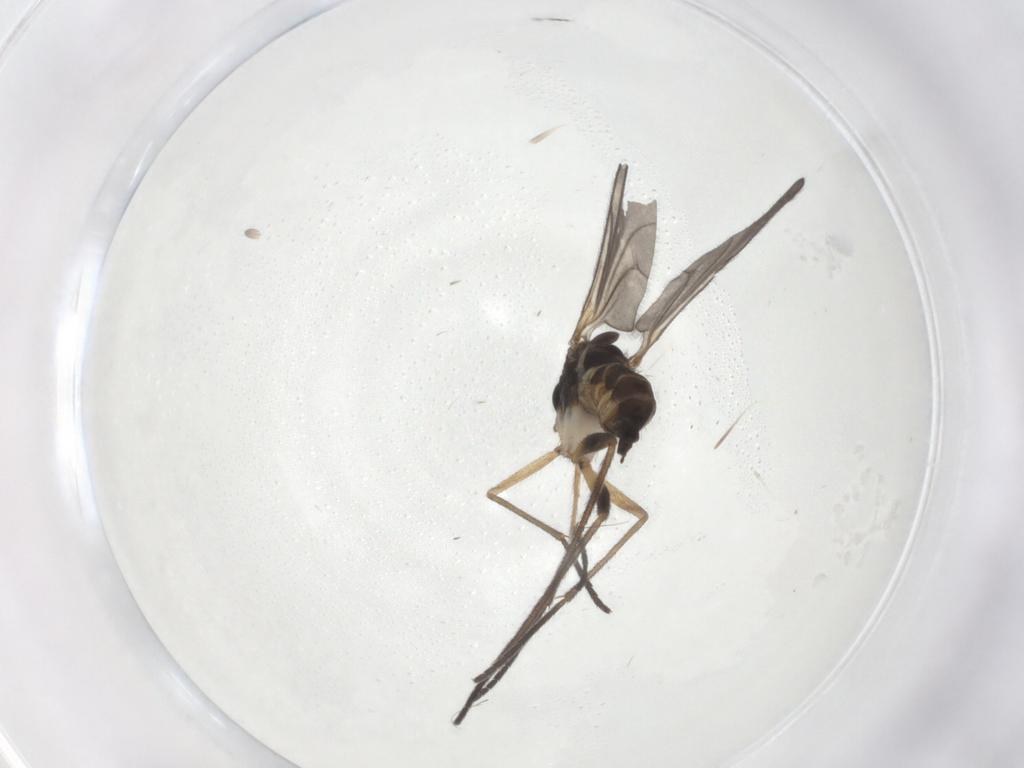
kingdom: Animalia
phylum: Arthropoda
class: Insecta
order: Diptera
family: Sciaridae
